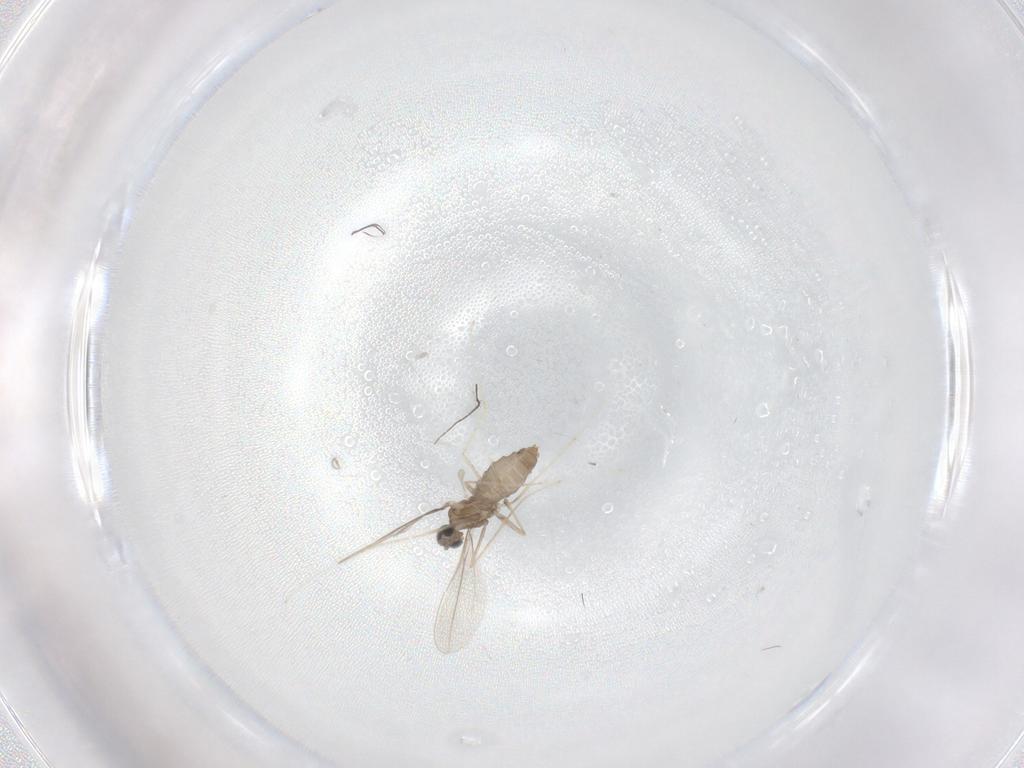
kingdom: Animalia
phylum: Arthropoda
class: Insecta
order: Diptera
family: Cecidomyiidae
